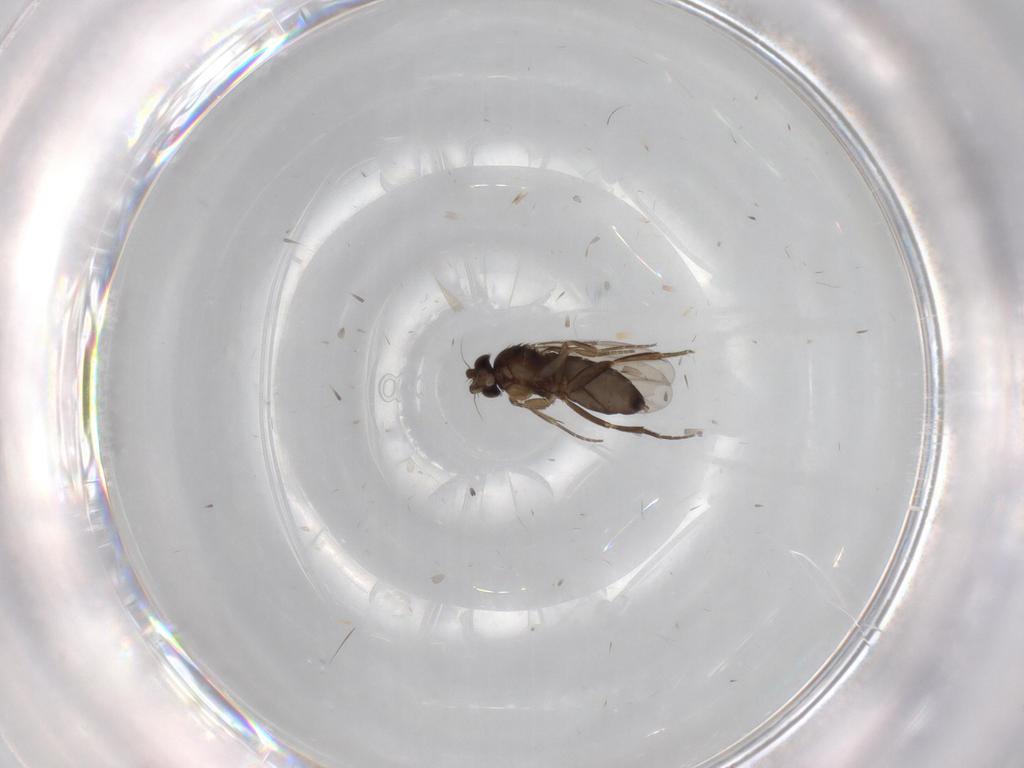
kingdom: Animalia
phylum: Arthropoda
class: Insecta
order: Diptera
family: Phoridae
